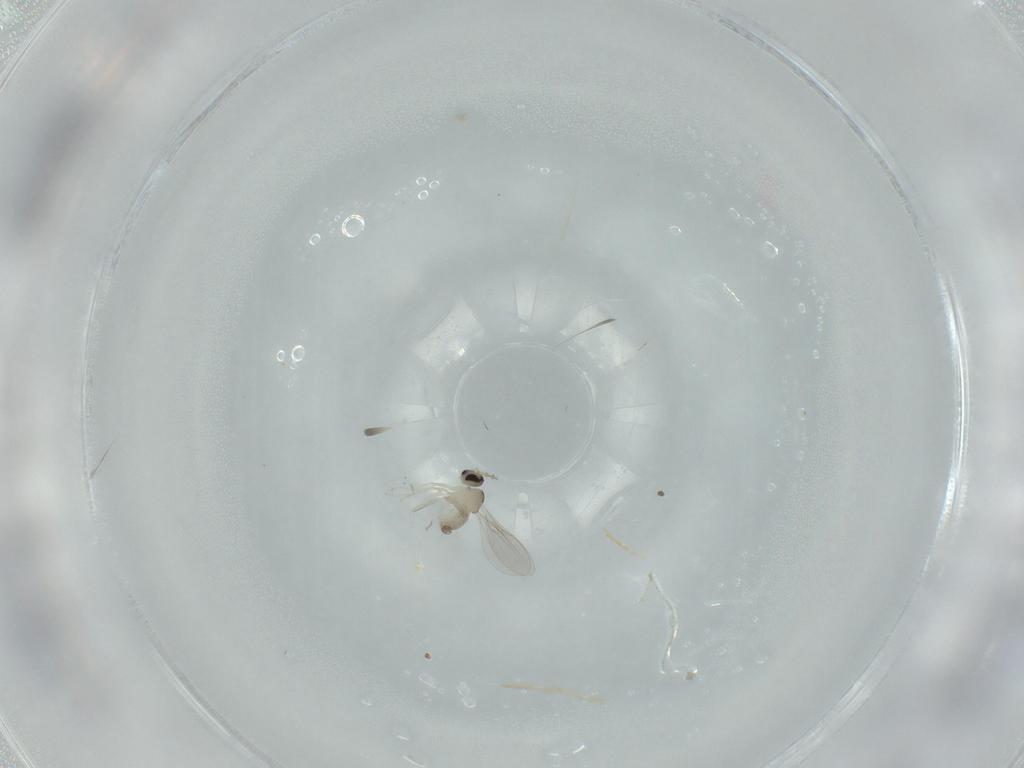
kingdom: Animalia
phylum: Arthropoda
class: Insecta
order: Diptera
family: Cecidomyiidae
